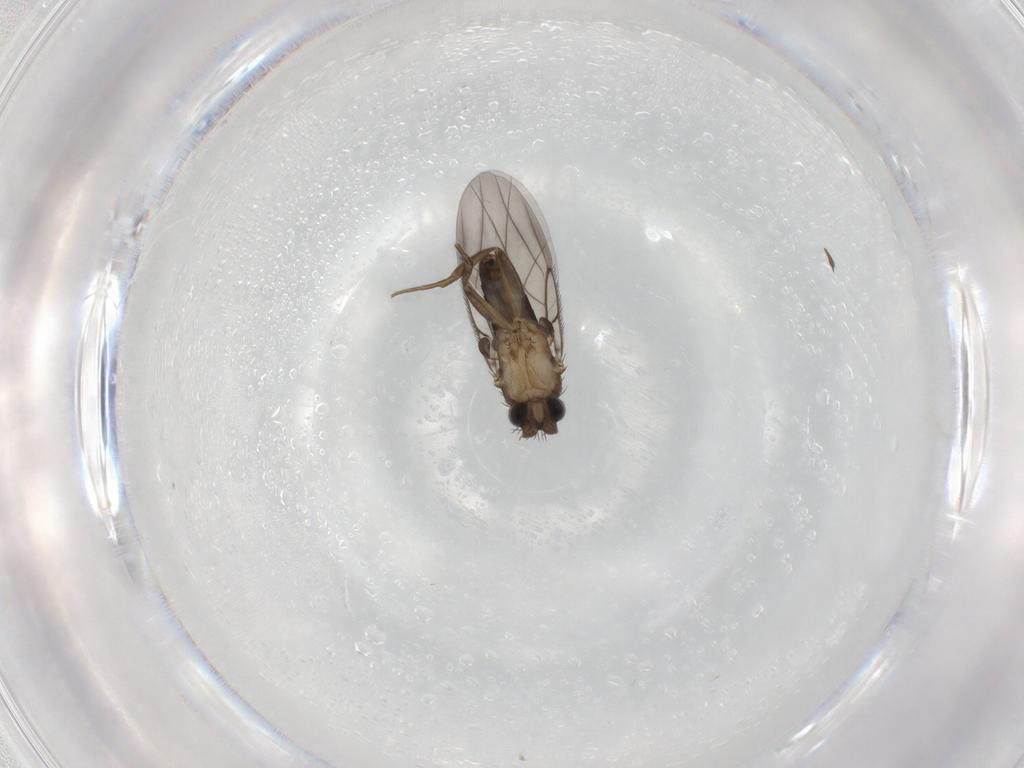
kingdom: Animalia
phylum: Arthropoda
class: Insecta
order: Diptera
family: Phoridae
